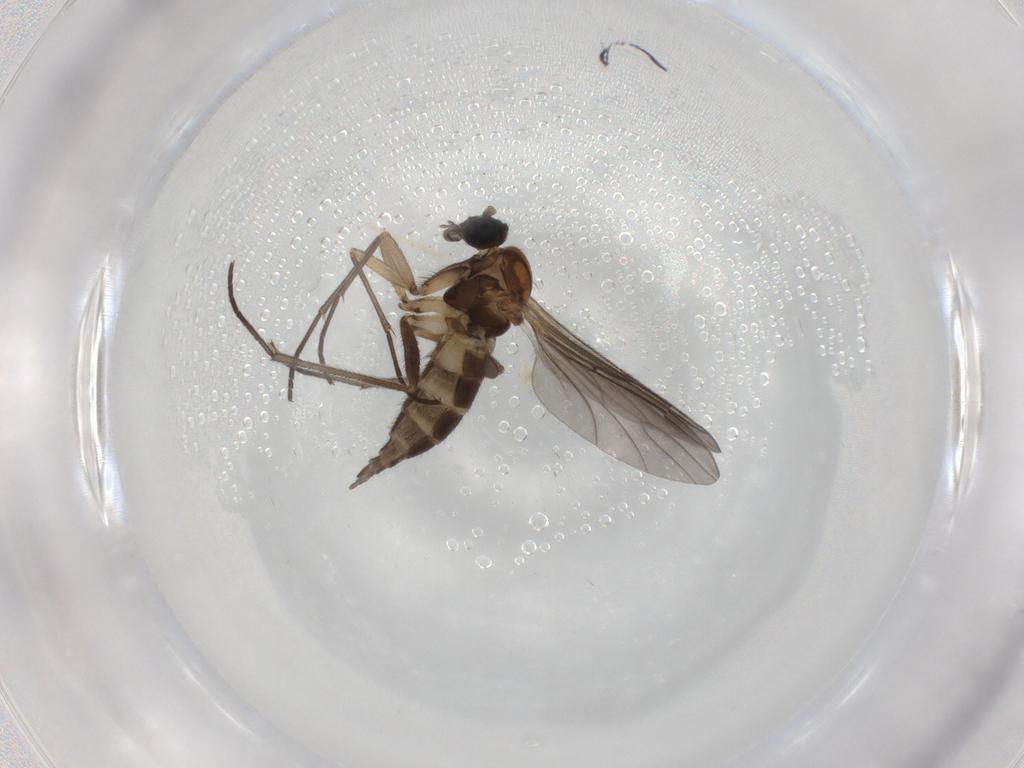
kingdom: Animalia
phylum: Arthropoda
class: Insecta
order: Diptera
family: Sciaridae
